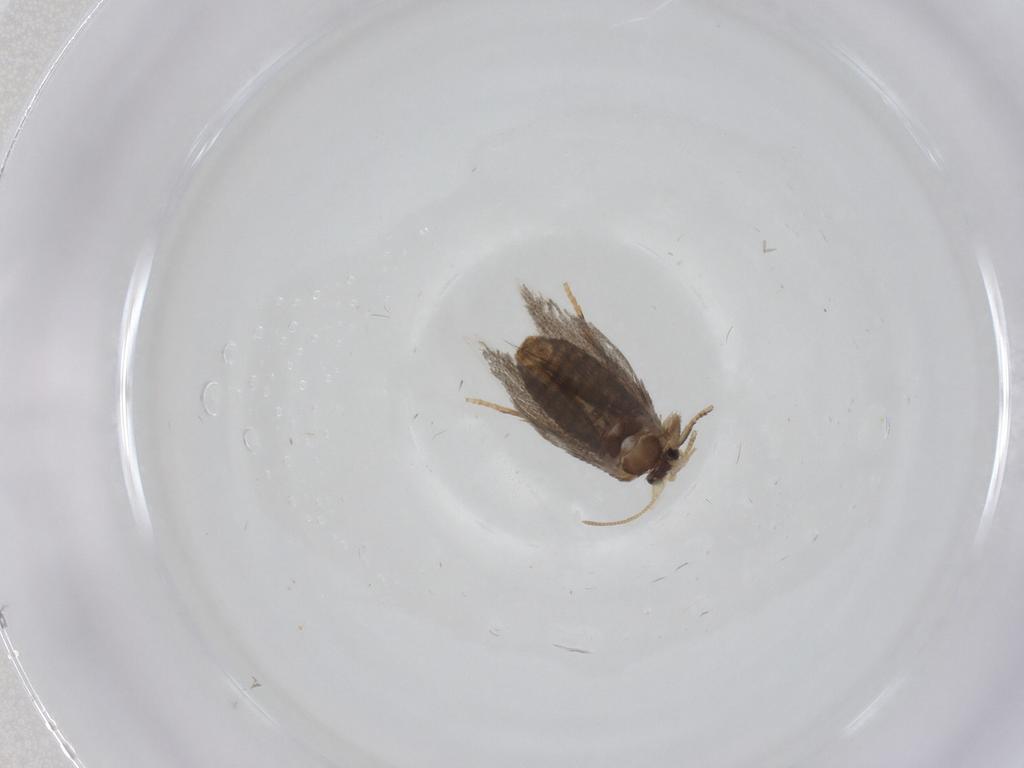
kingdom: Animalia
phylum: Arthropoda
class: Insecta
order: Lepidoptera
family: Nepticulidae
